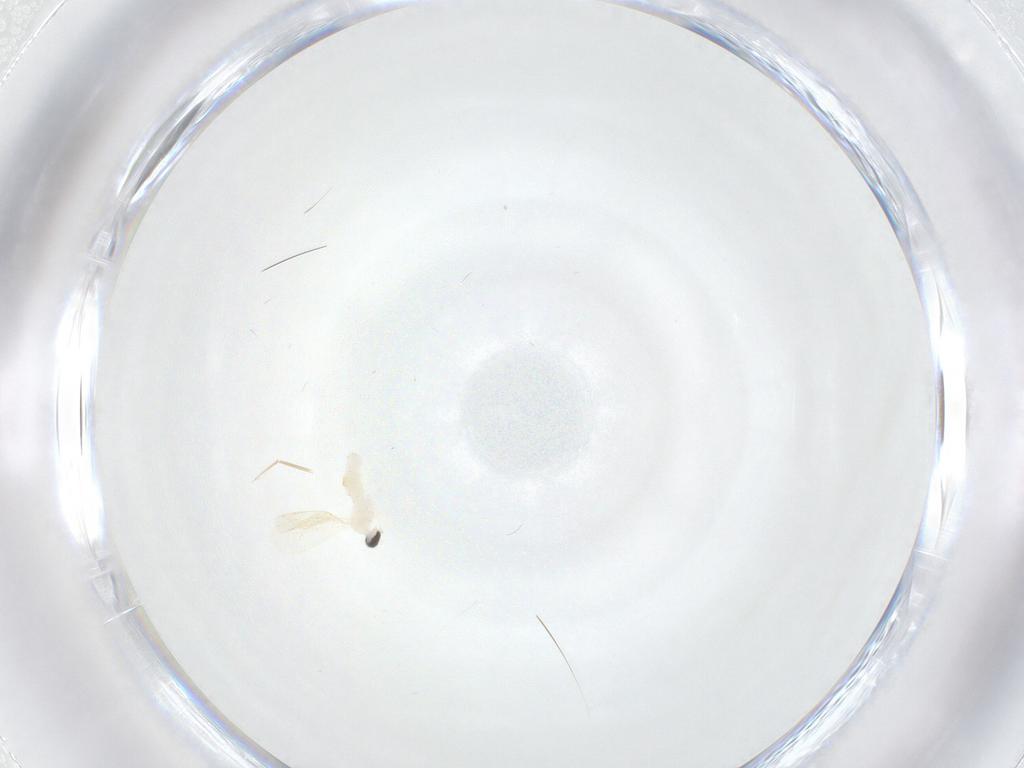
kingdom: Animalia
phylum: Arthropoda
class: Insecta
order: Diptera
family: Cecidomyiidae
